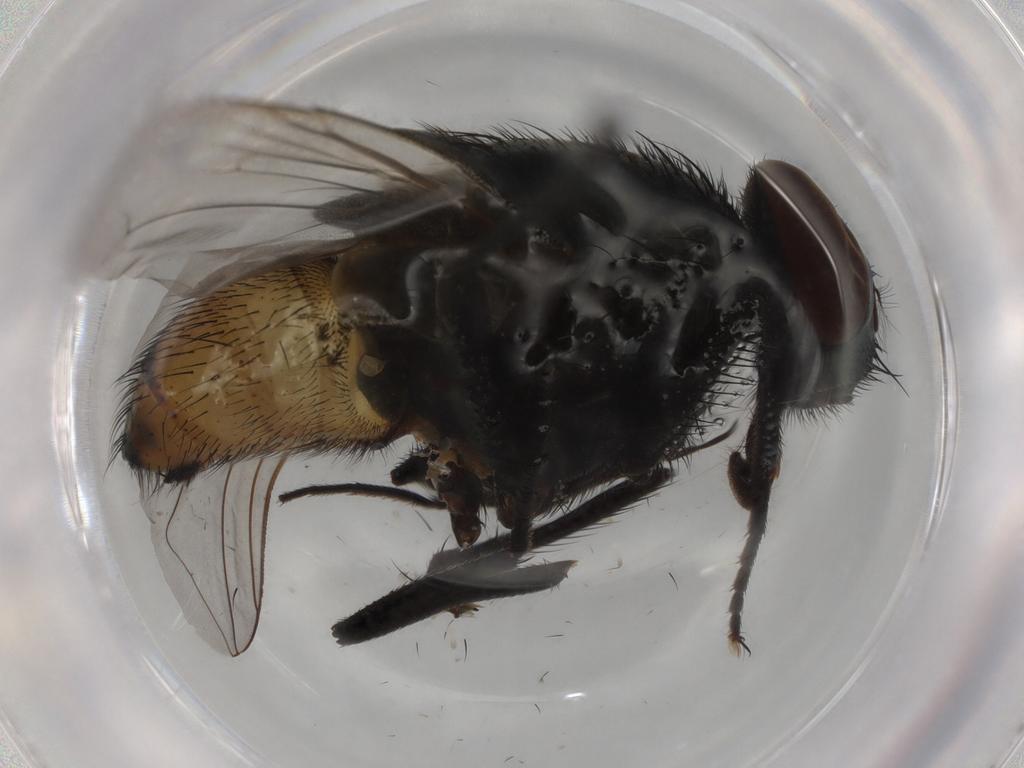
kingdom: Animalia
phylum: Arthropoda
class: Insecta
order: Diptera
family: Muscidae
